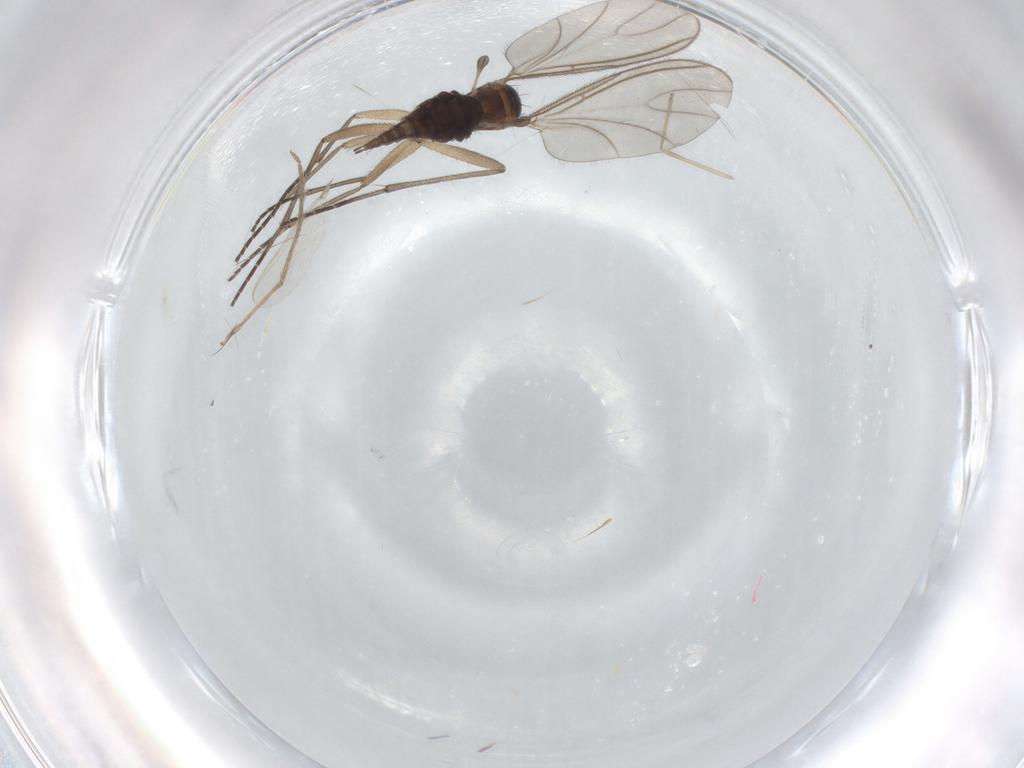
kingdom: Animalia
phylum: Arthropoda
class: Insecta
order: Diptera
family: Sciaridae
